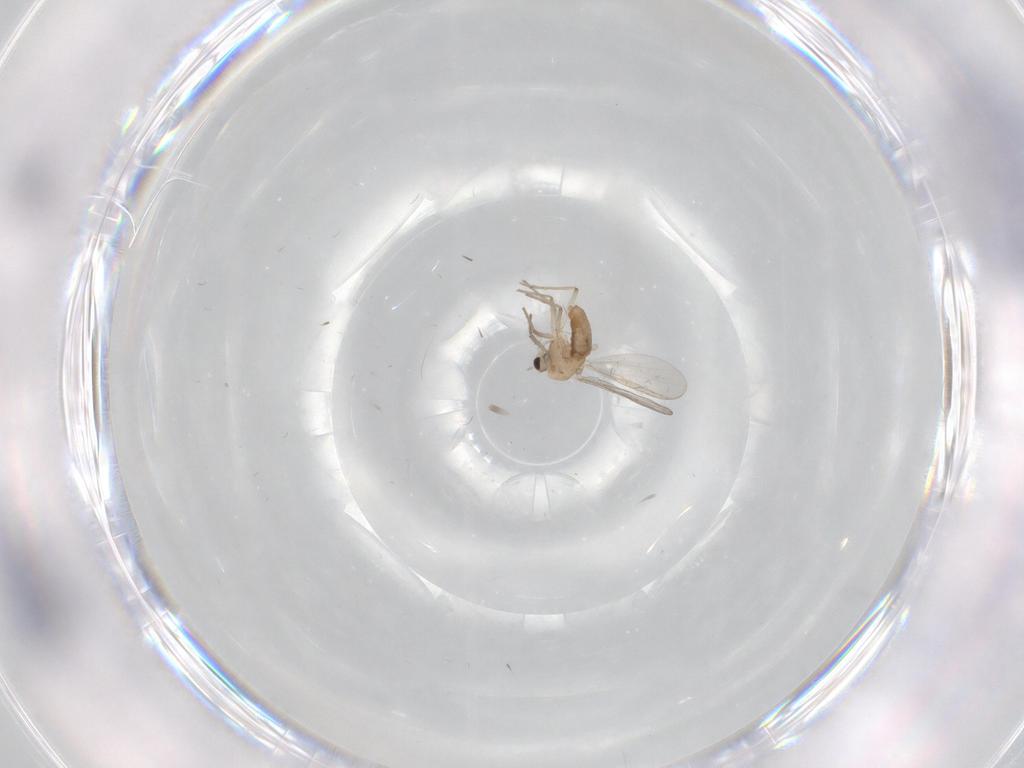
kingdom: Animalia
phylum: Arthropoda
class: Insecta
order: Diptera
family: Chironomidae
